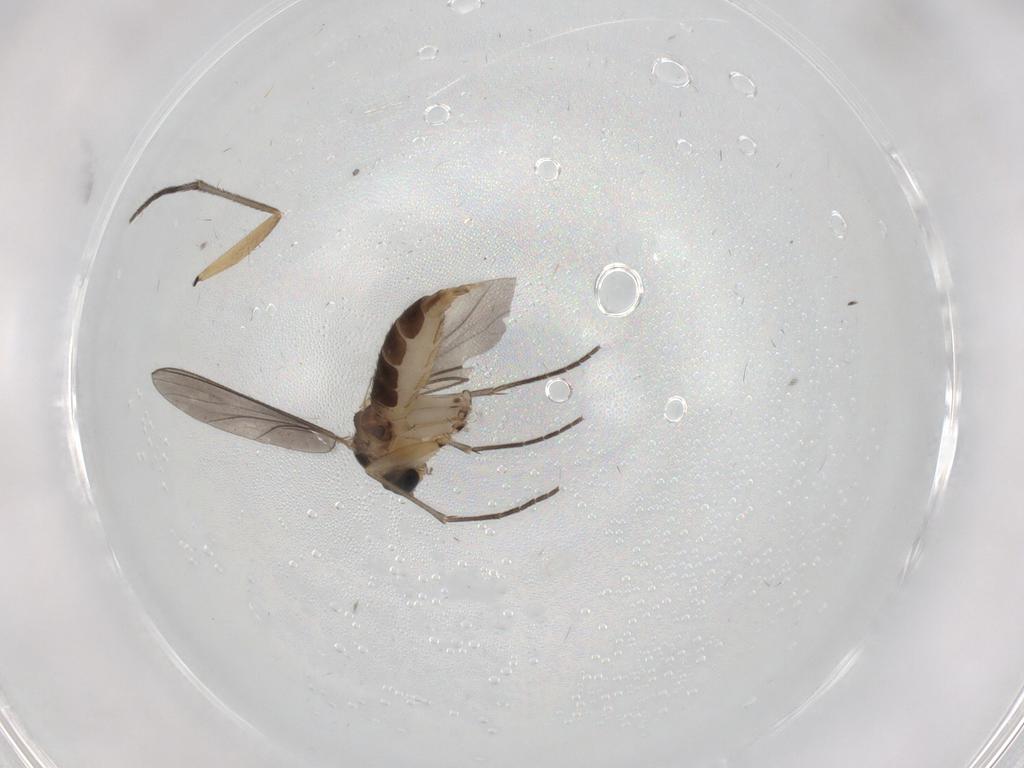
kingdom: Animalia
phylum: Arthropoda
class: Insecta
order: Diptera
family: Sciaridae
